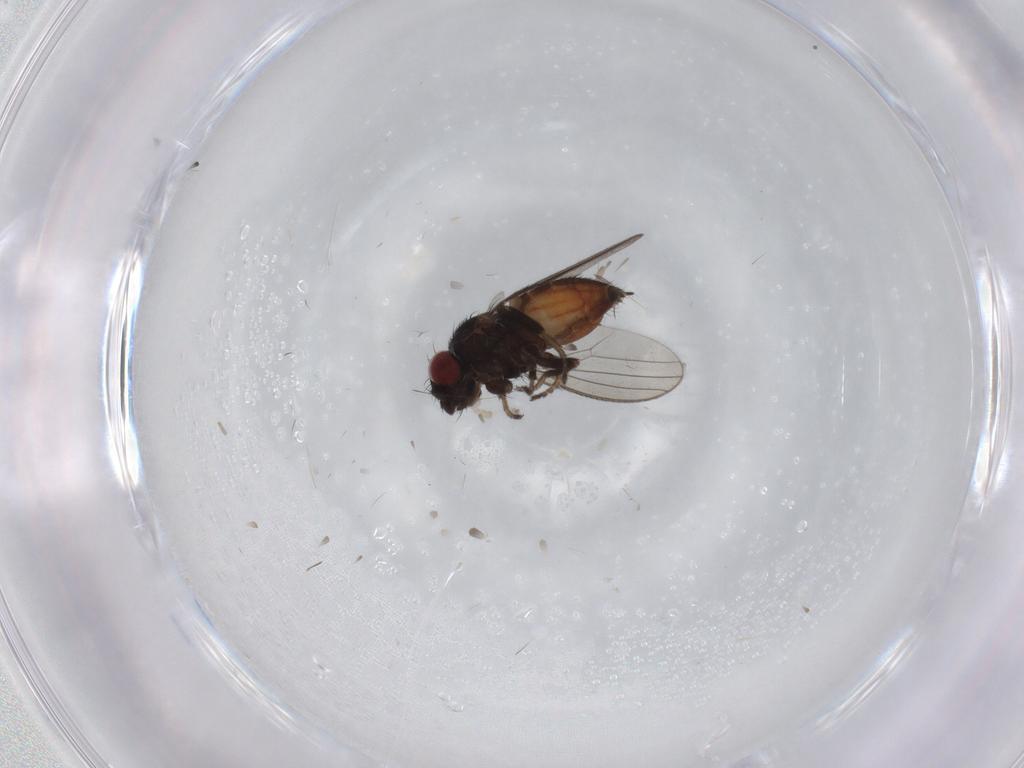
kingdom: Animalia
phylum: Arthropoda
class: Insecta
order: Diptera
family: Milichiidae
